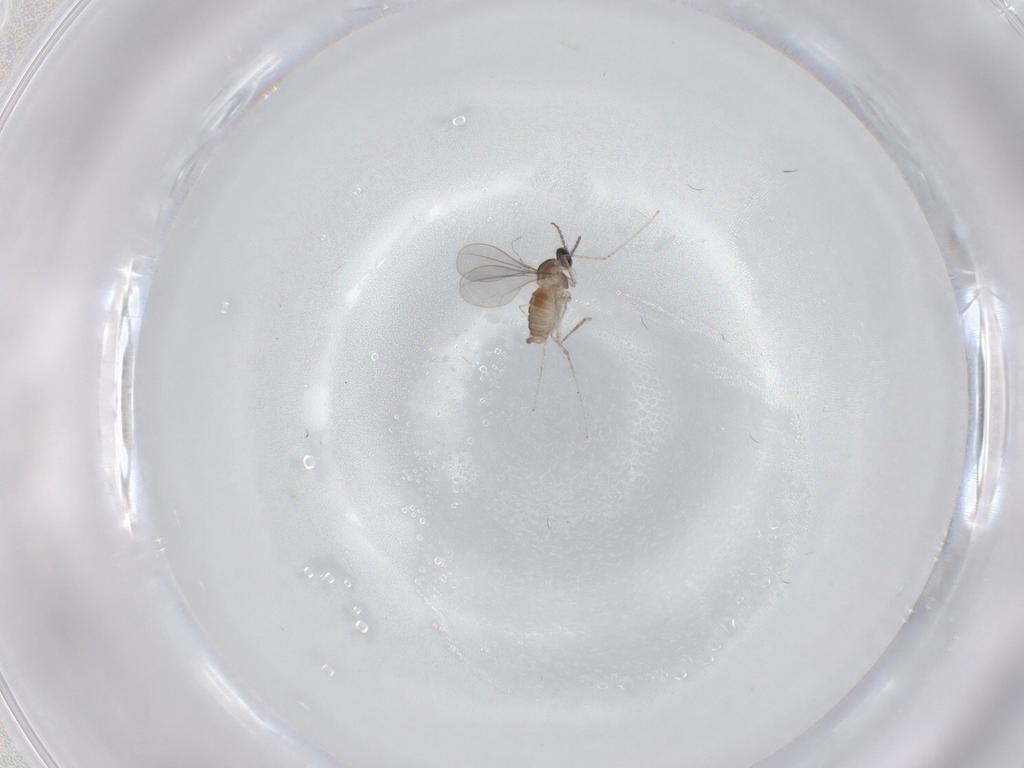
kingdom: Animalia
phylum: Arthropoda
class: Insecta
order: Diptera
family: Cecidomyiidae
